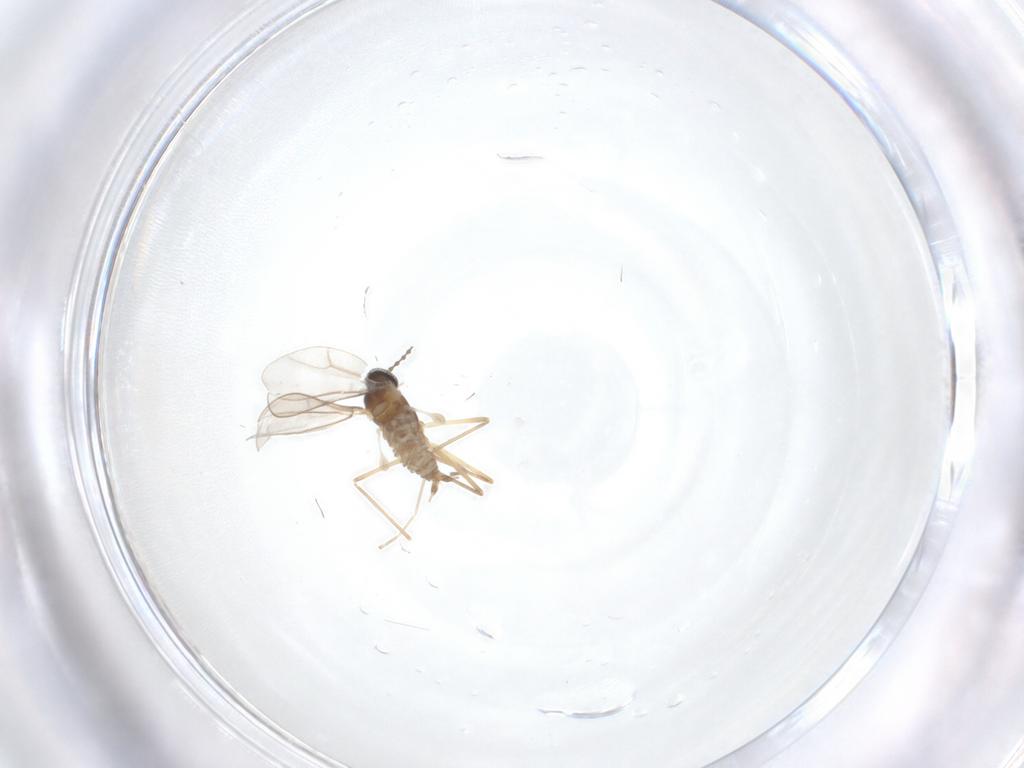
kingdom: Animalia
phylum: Arthropoda
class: Insecta
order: Diptera
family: Cecidomyiidae
